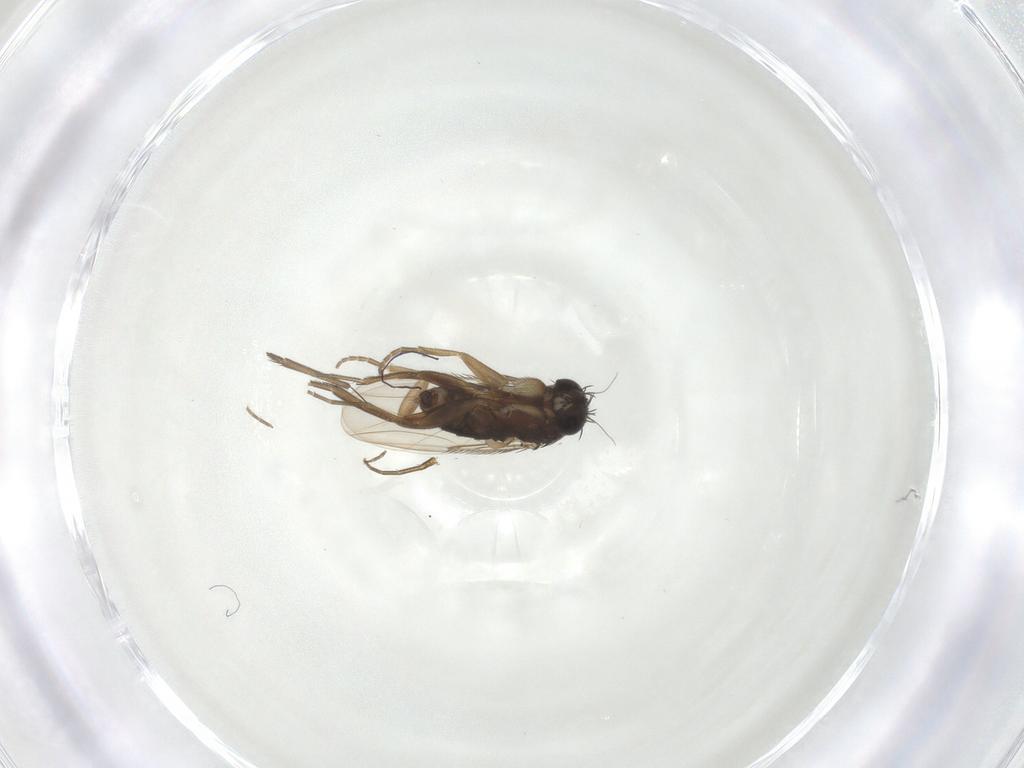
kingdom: Animalia
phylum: Arthropoda
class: Insecta
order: Diptera
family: Phoridae
